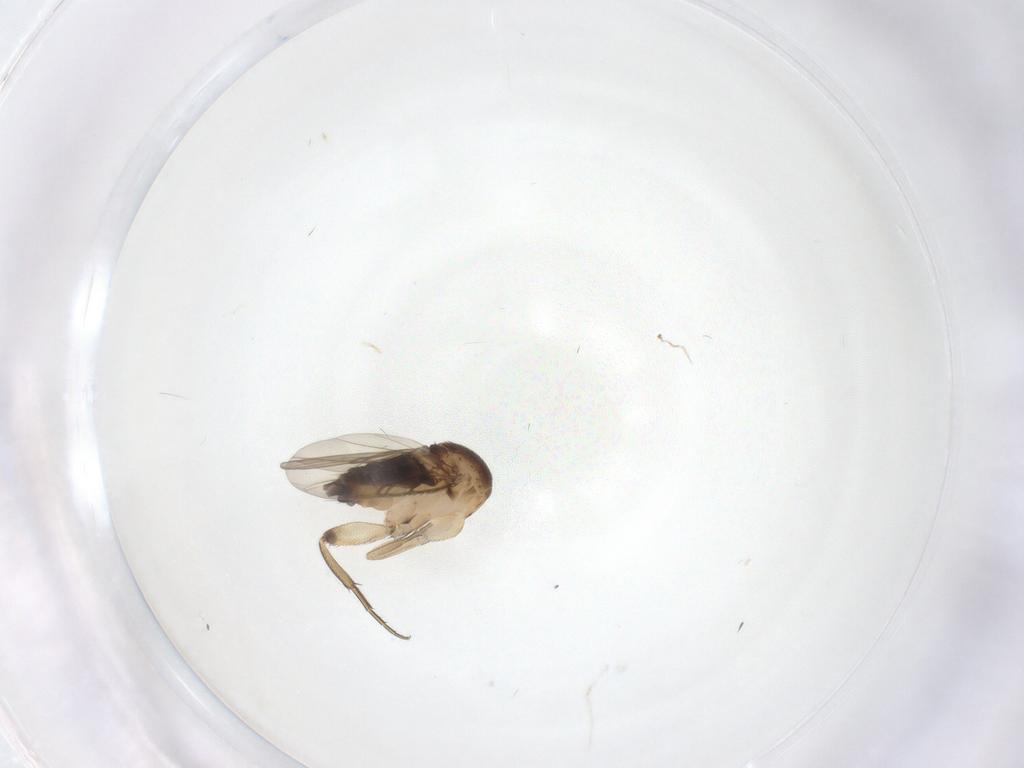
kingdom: Animalia
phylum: Arthropoda
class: Insecta
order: Diptera
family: Phoridae
